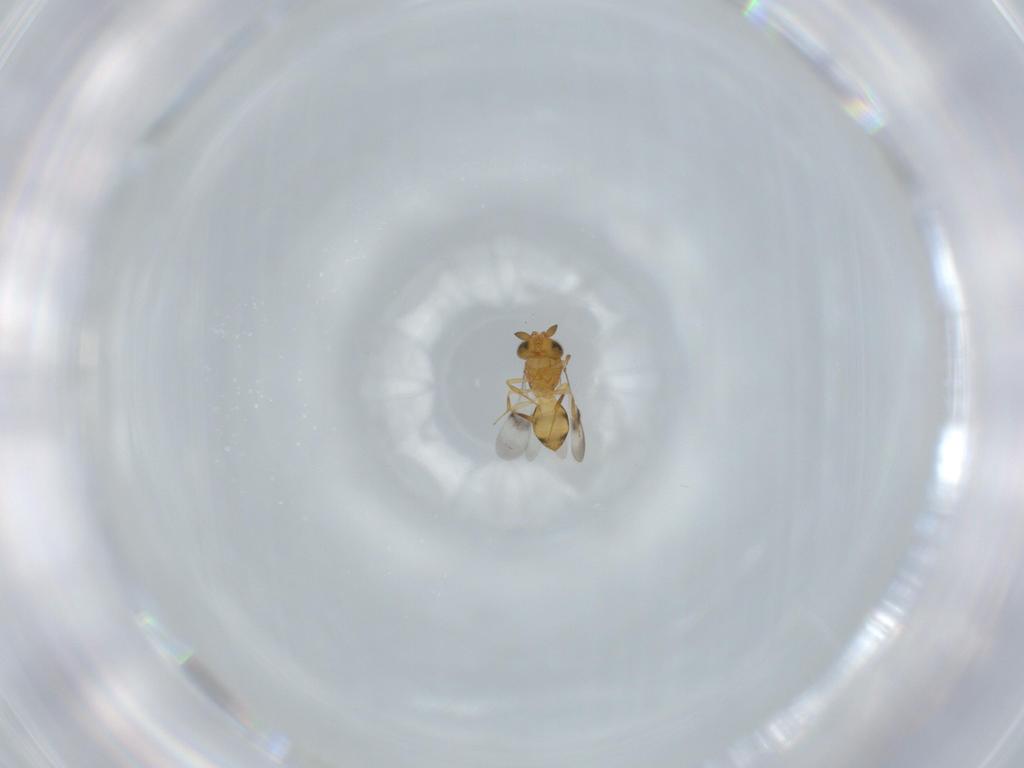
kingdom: Animalia
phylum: Arthropoda
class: Insecta
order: Hymenoptera
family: Scelionidae
